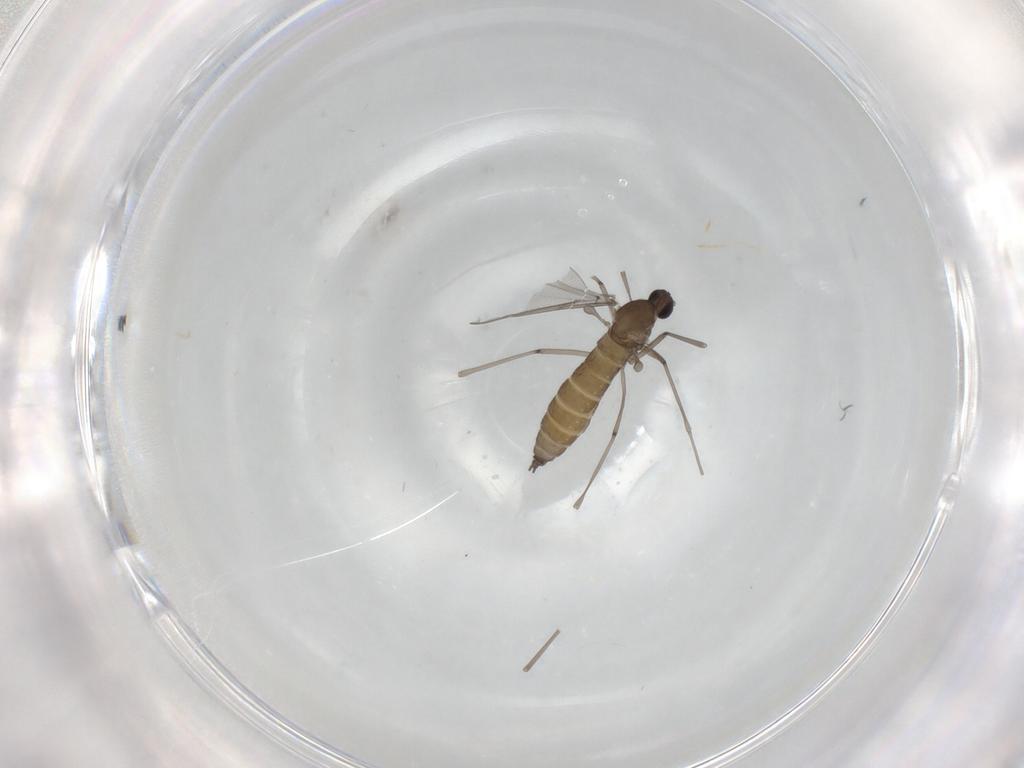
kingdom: Animalia
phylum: Arthropoda
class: Insecta
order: Diptera
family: Cecidomyiidae
